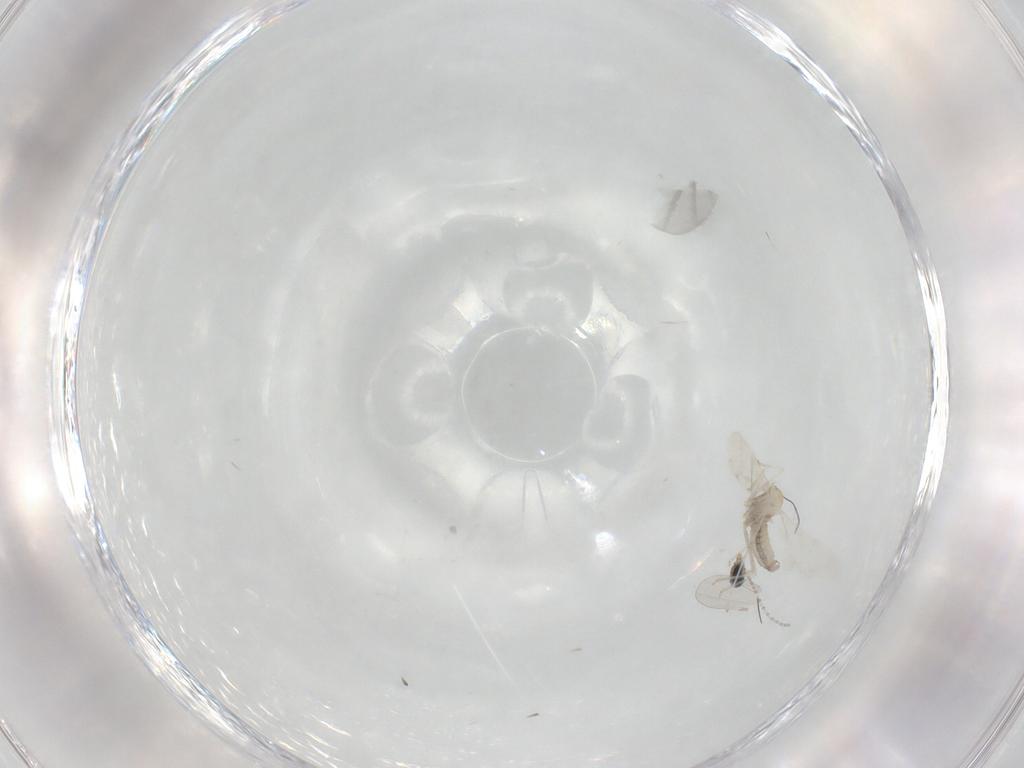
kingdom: Animalia
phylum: Arthropoda
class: Insecta
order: Diptera
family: Cecidomyiidae
